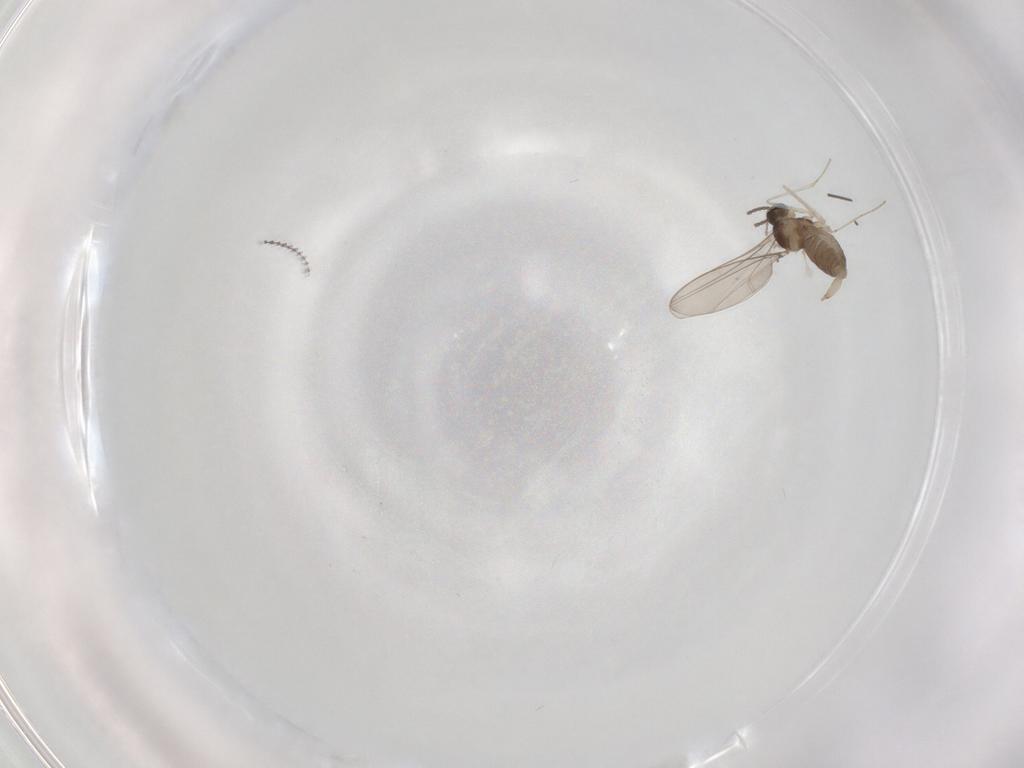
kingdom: Animalia
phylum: Arthropoda
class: Insecta
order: Diptera
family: Cecidomyiidae
